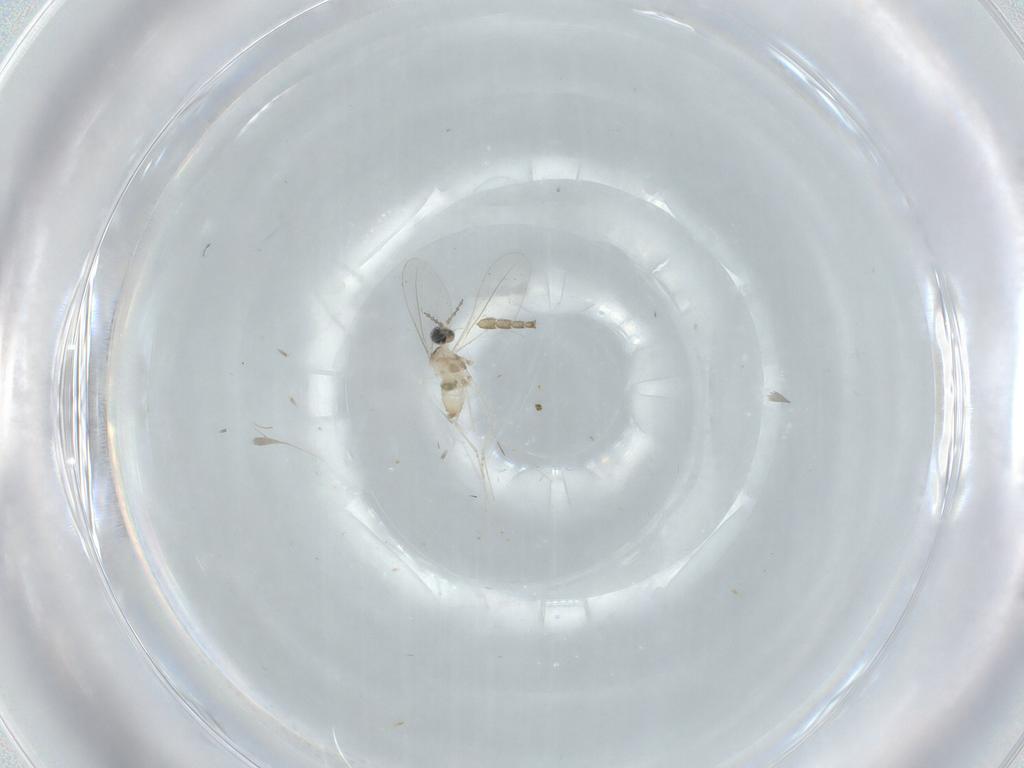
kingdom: Animalia
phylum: Arthropoda
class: Insecta
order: Diptera
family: Cecidomyiidae
